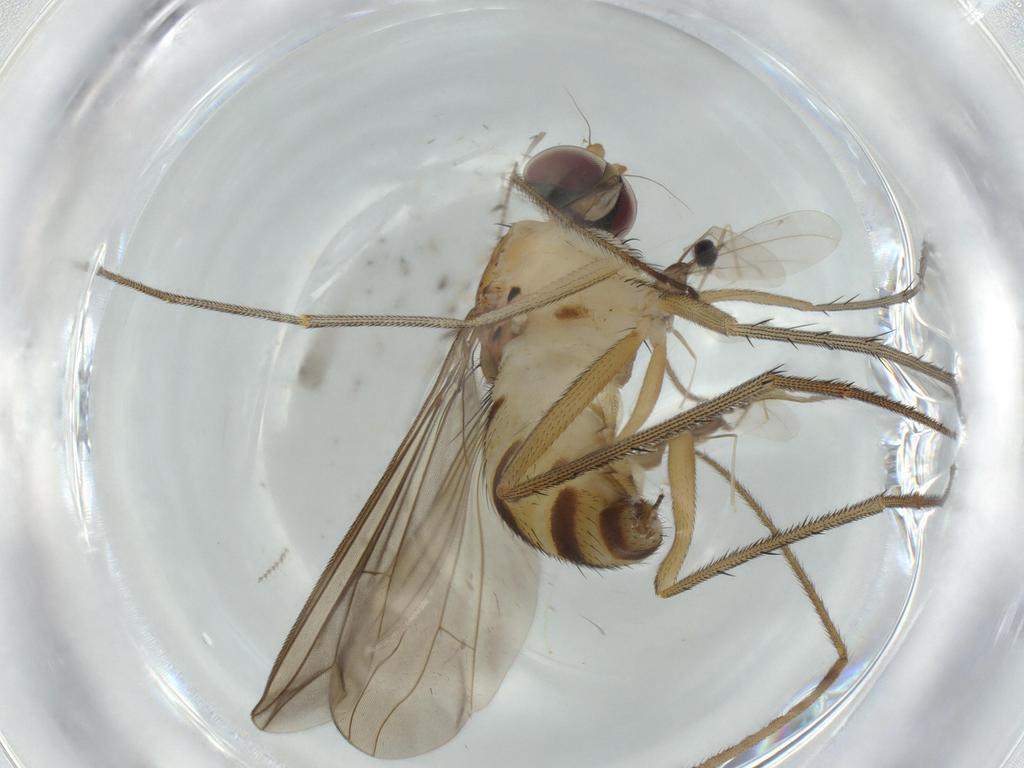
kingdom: Animalia
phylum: Arthropoda
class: Insecta
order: Diptera
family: Cecidomyiidae
